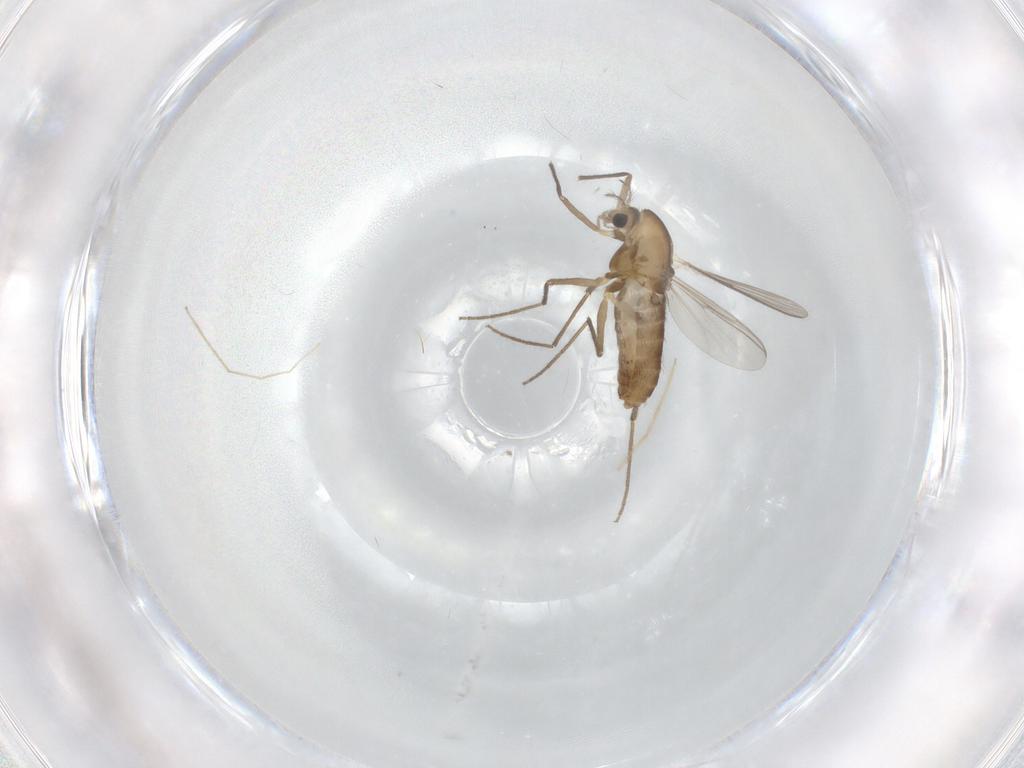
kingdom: Animalia
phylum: Arthropoda
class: Insecta
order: Diptera
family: Chironomidae
